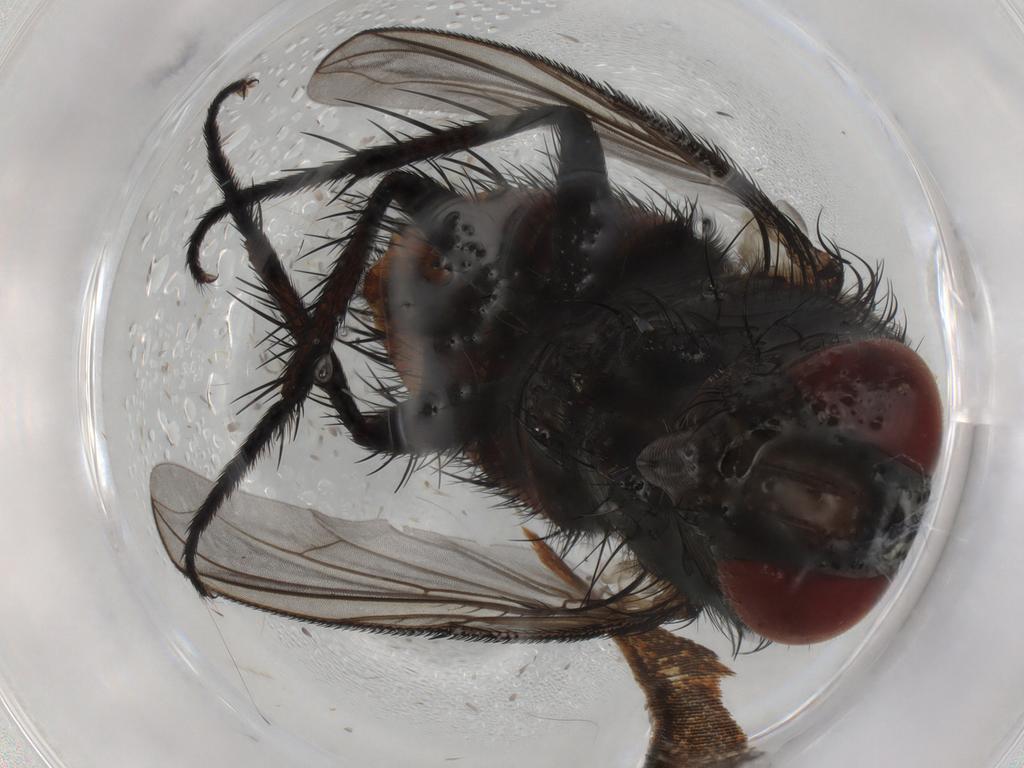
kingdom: Animalia
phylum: Arthropoda
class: Insecta
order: Diptera
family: Tachinidae
